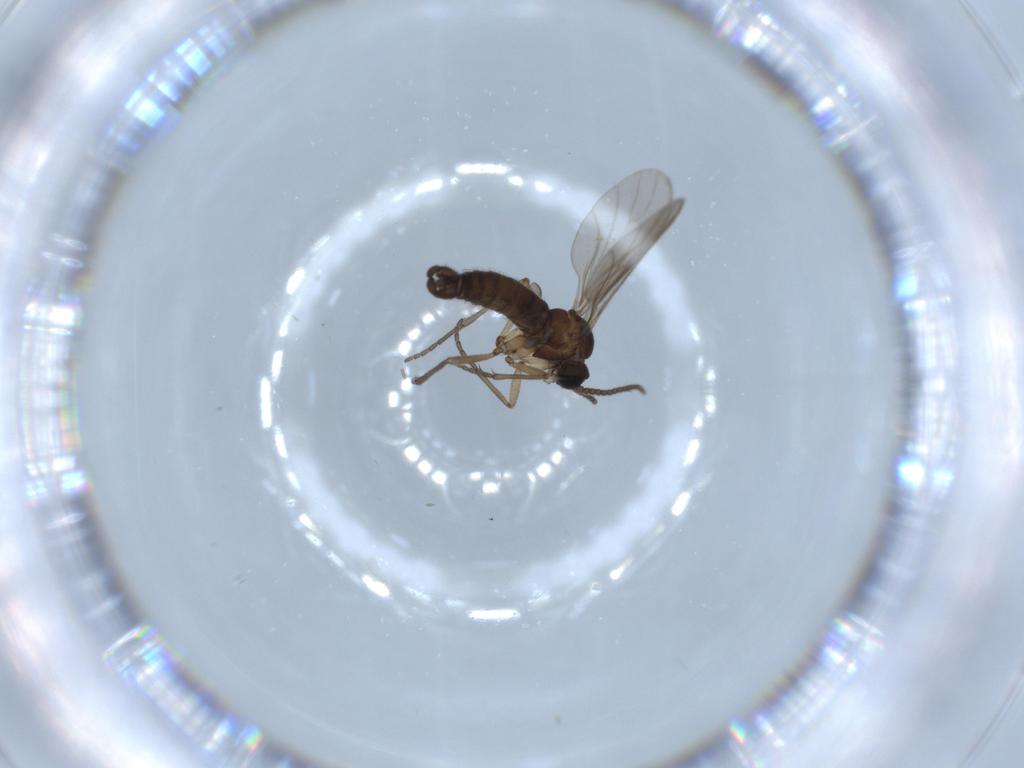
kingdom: Animalia
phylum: Arthropoda
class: Insecta
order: Diptera
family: Sciaridae
